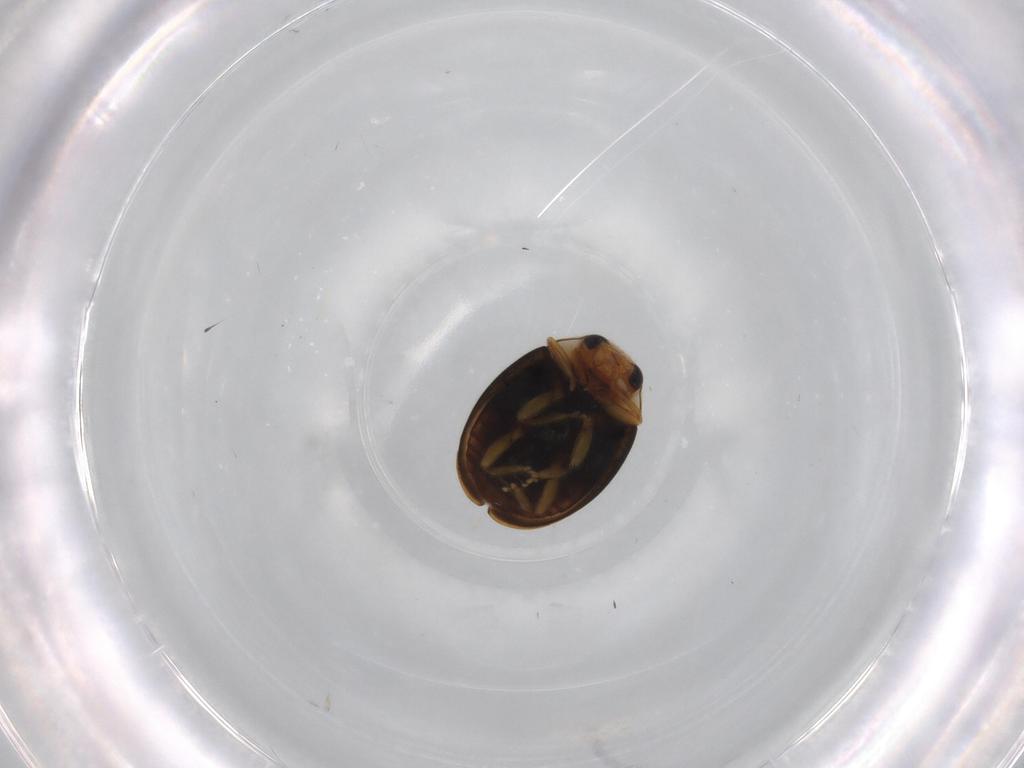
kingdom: Animalia
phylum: Arthropoda
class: Insecta
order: Coleoptera
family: Coccinellidae
